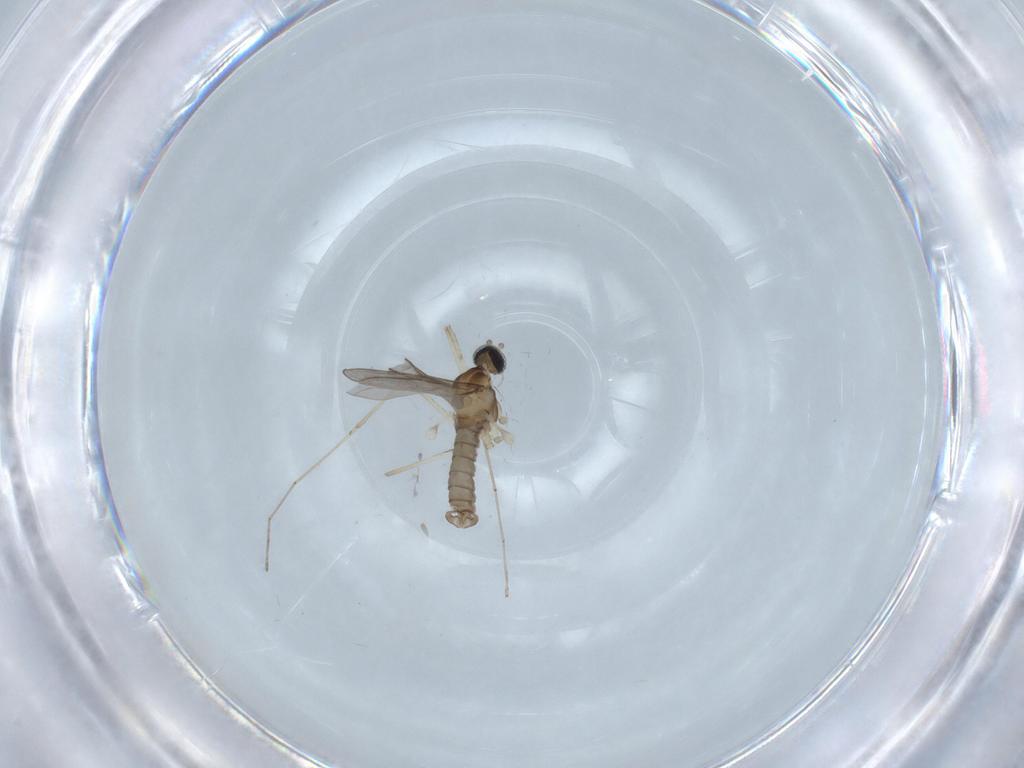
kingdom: Animalia
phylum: Arthropoda
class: Insecta
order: Diptera
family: Cecidomyiidae
